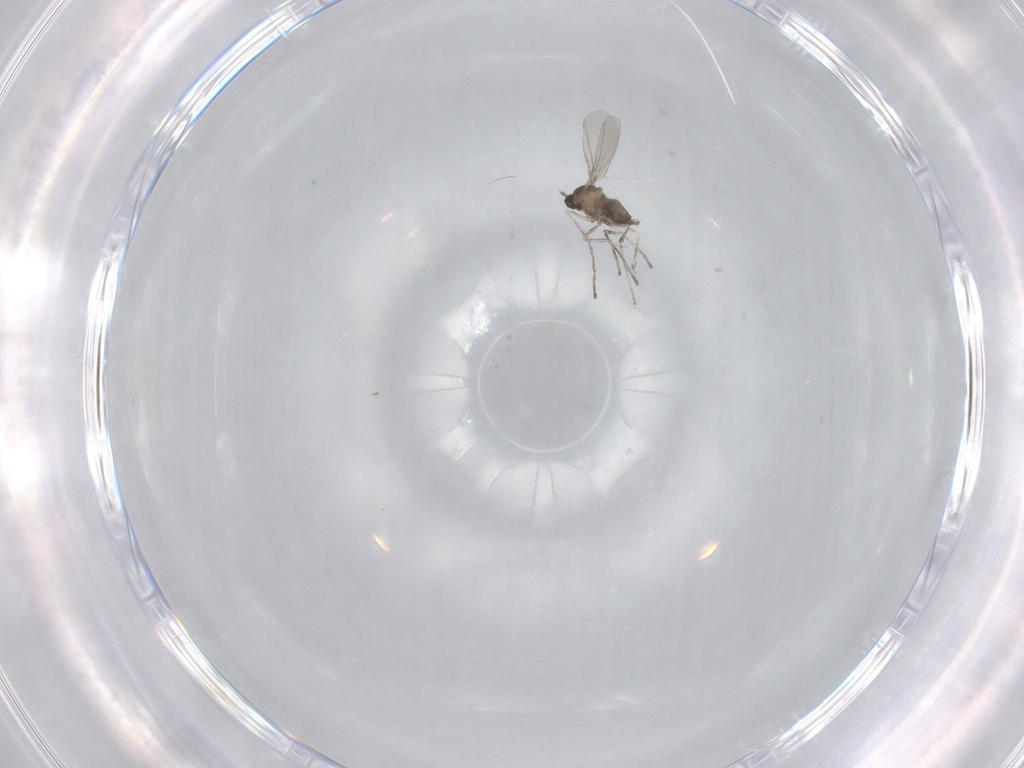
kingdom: Animalia
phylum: Arthropoda
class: Insecta
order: Diptera
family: Cecidomyiidae
